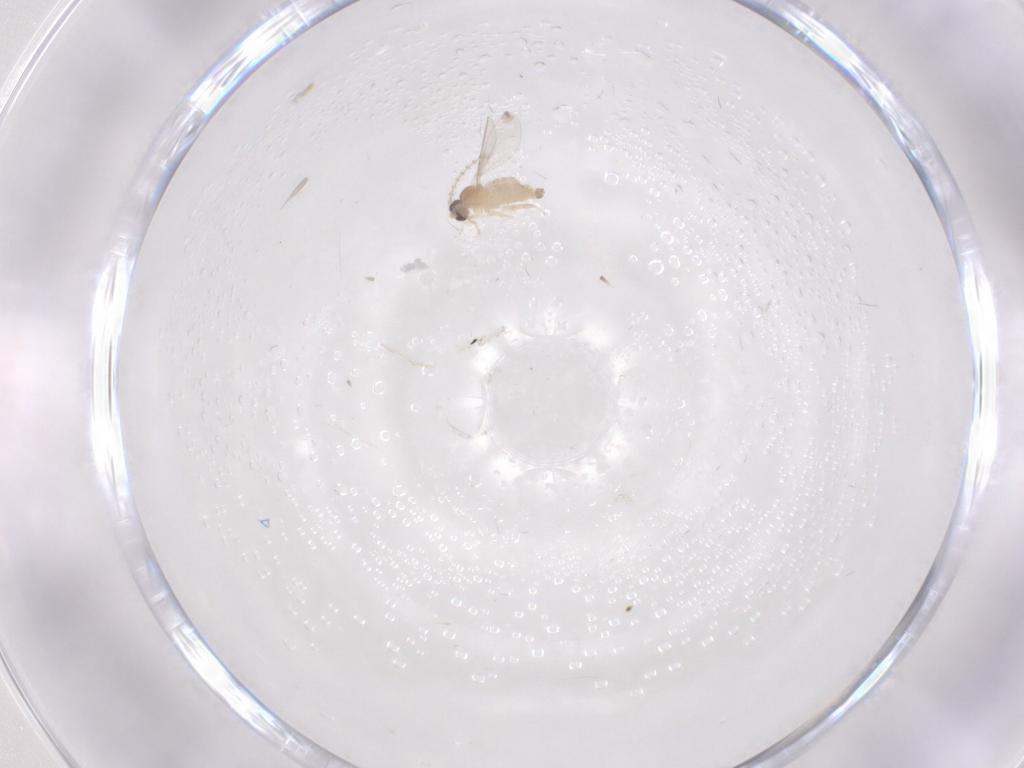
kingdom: Animalia
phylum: Arthropoda
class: Insecta
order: Diptera
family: Cecidomyiidae
